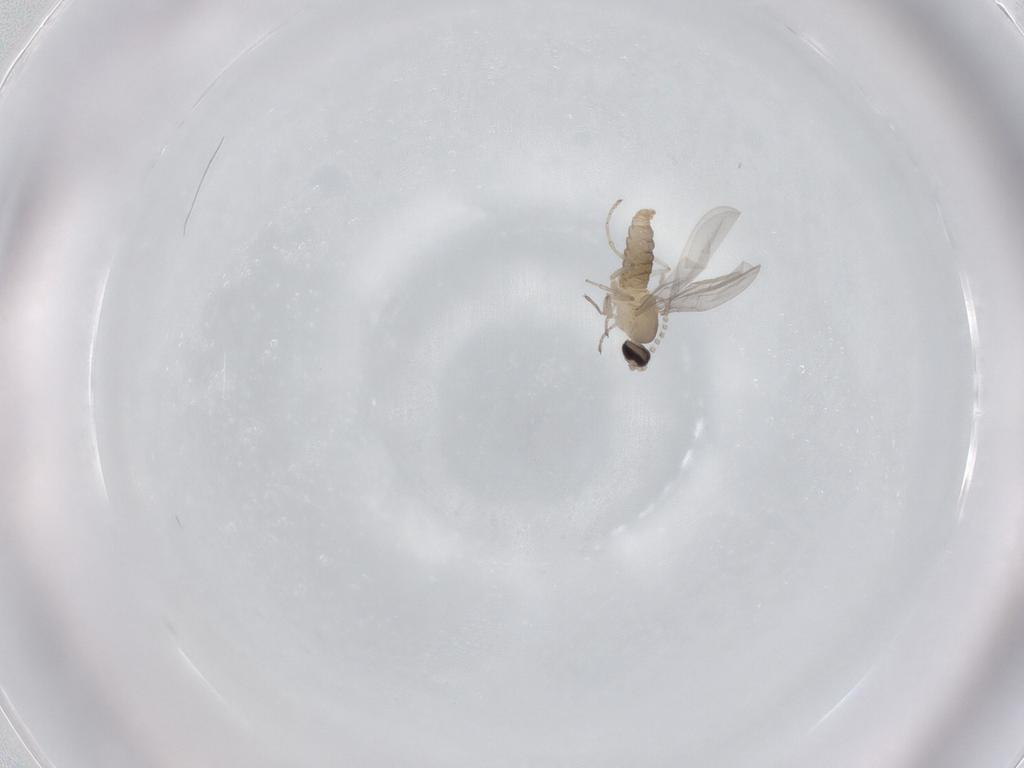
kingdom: Animalia
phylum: Arthropoda
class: Insecta
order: Diptera
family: Cecidomyiidae
